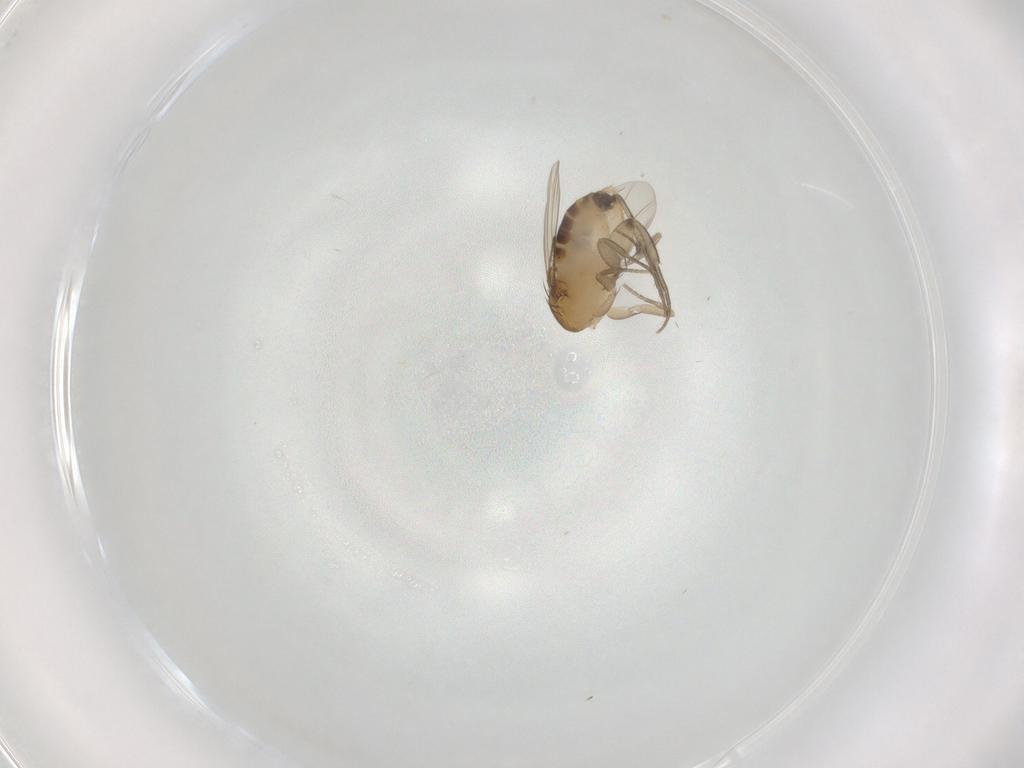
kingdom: Animalia
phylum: Arthropoda
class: Insecta
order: Diptera
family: Phoridae
